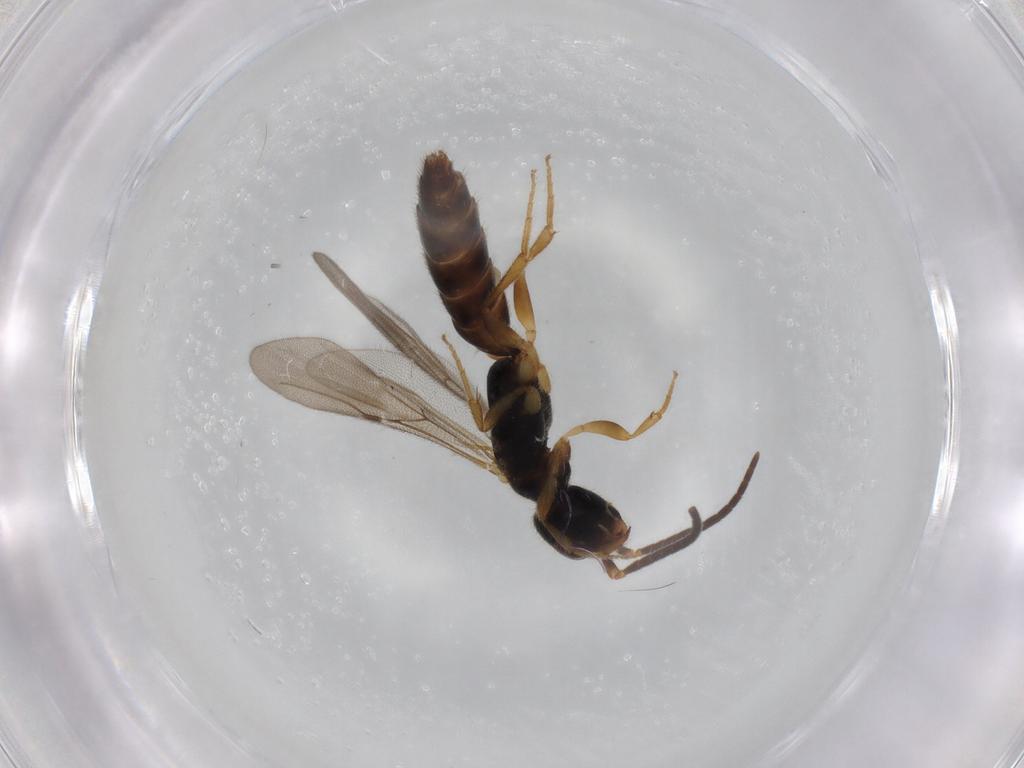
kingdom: Animalia
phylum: Arthropoda
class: Insecta
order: Hymenoptera
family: Bethylidae
